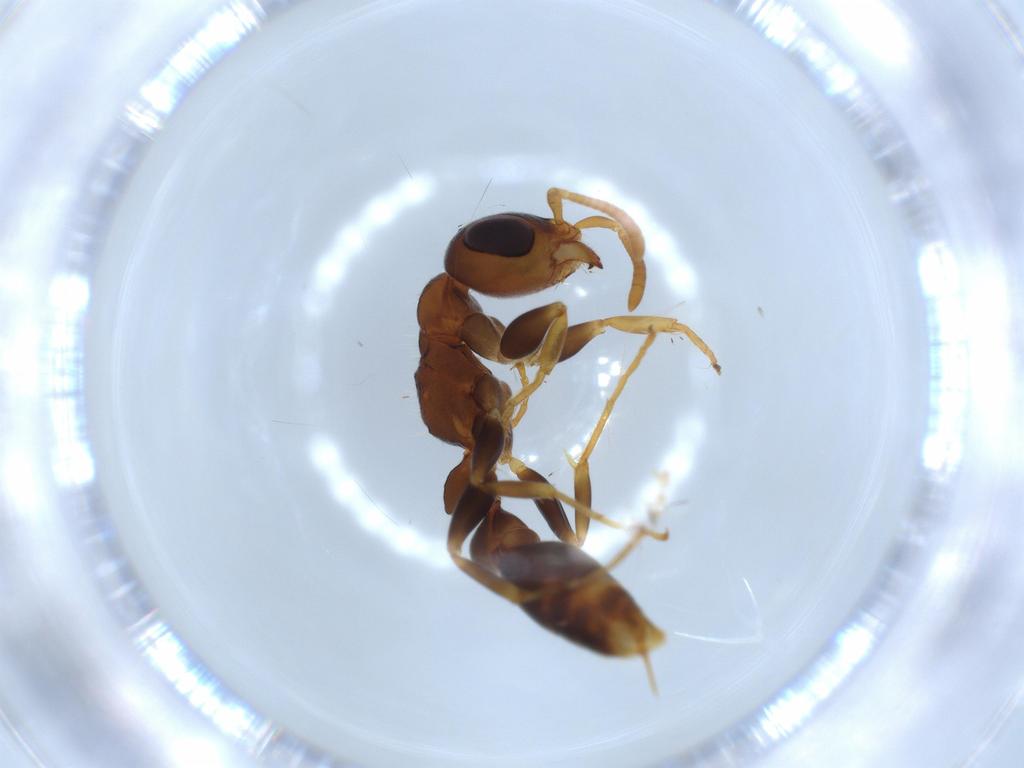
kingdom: Animalia
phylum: Arthropoda
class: Insecta
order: Hymenoptera
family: Formicidae
